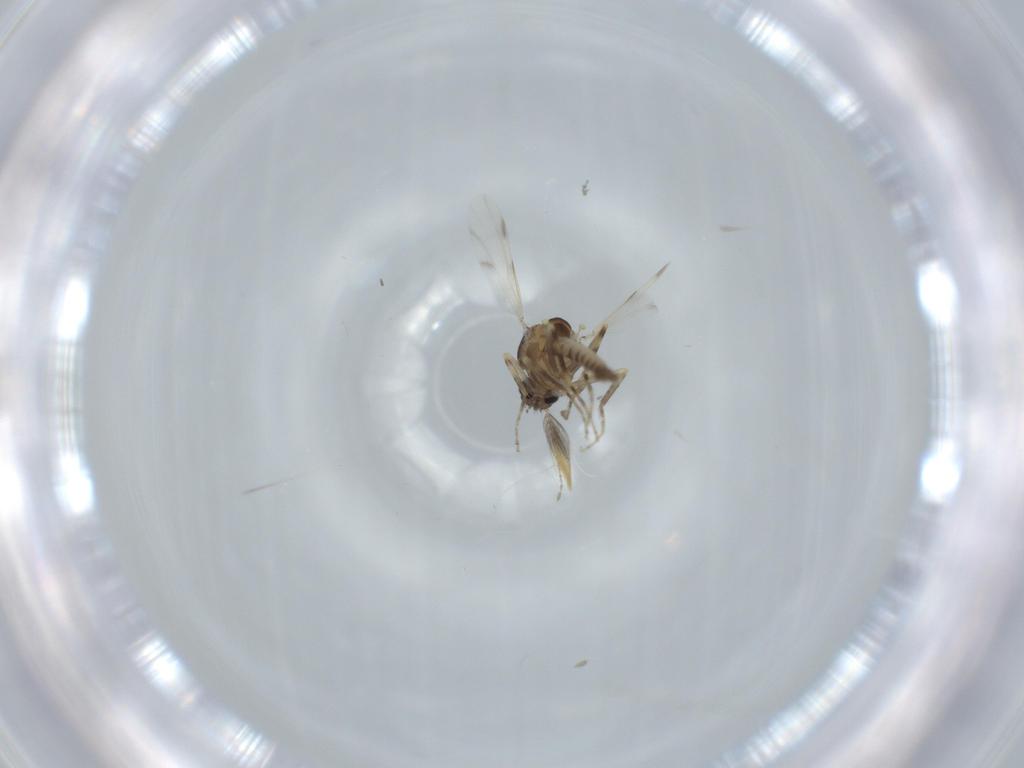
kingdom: Animalia
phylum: Arthropoda
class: Insecta
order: Diptera
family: Ceratopogonidae
